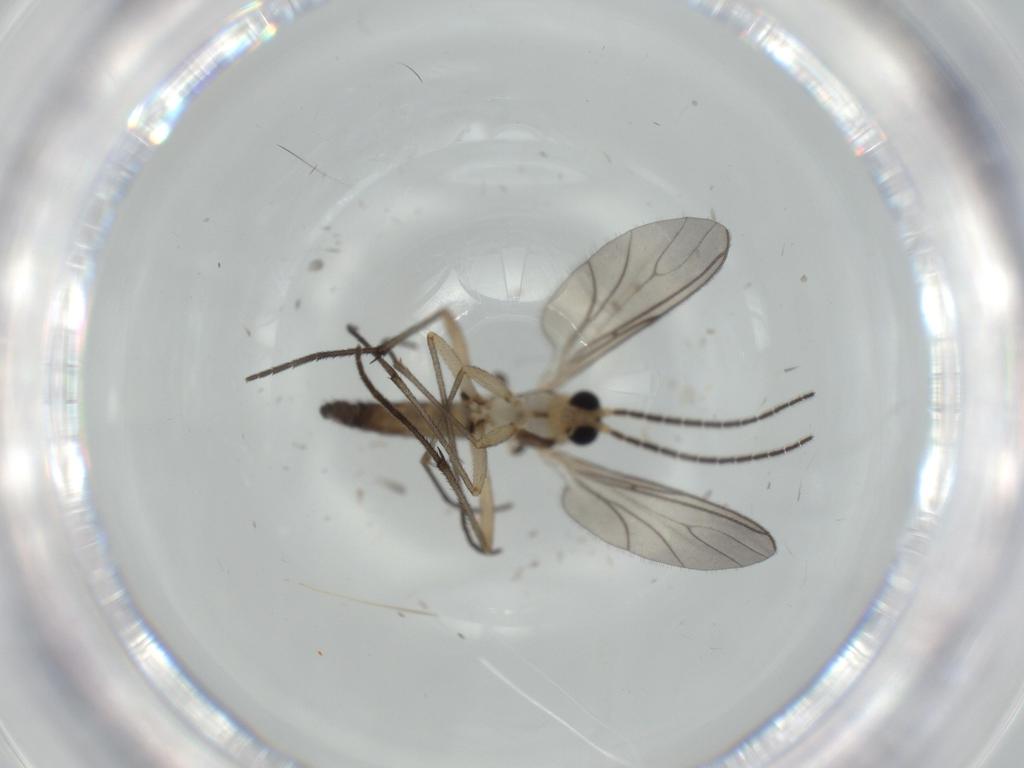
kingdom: Animalia
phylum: Arthropoda
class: Insecta
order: Diptera
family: Sciaridae
